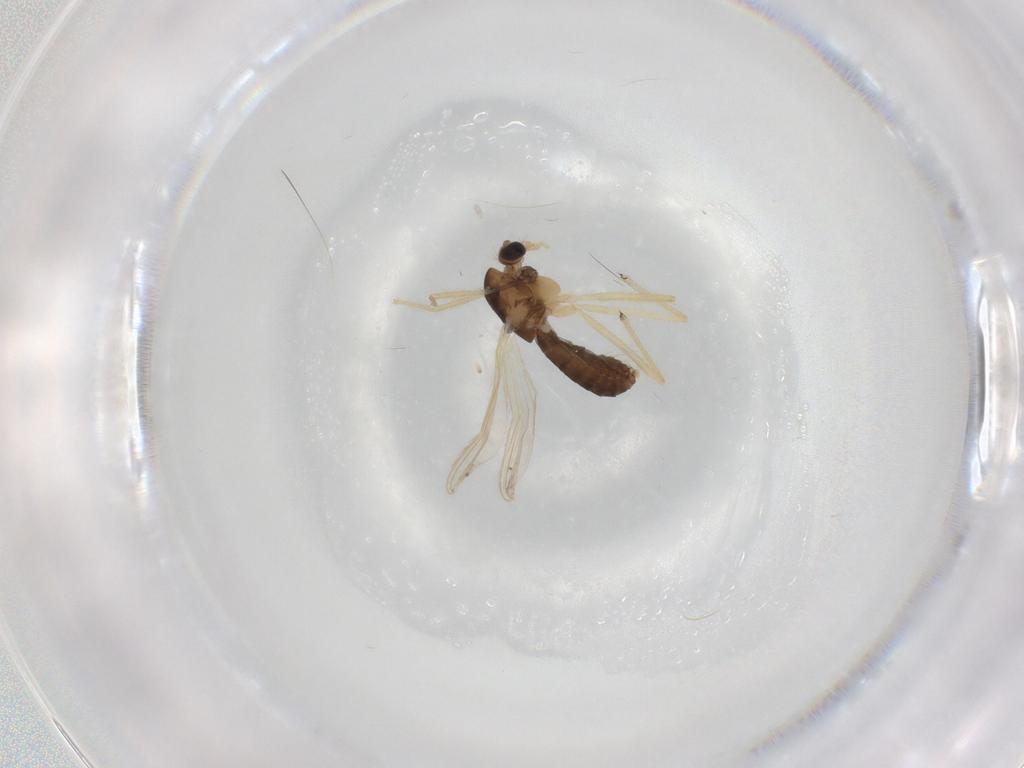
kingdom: Animalia
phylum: Arthropoda
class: Insecta
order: Diptera
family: Chironomidae
